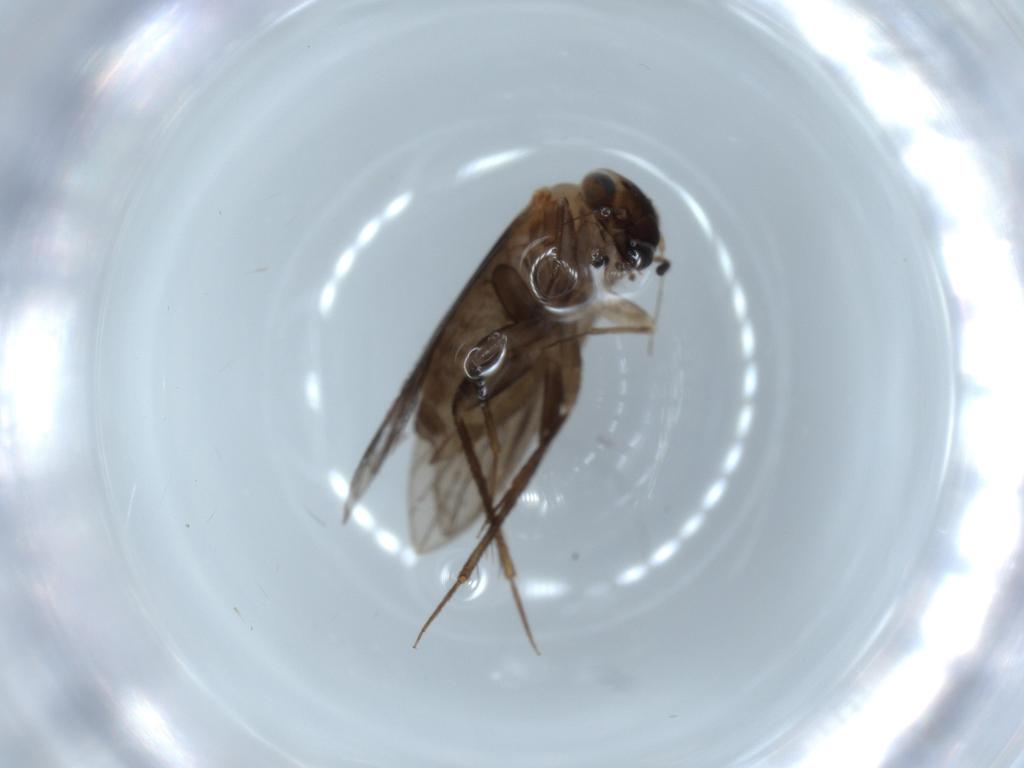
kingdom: Animalia
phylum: Arthropoda
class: Insecta
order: Psocodea
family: Lepidopsocidae
